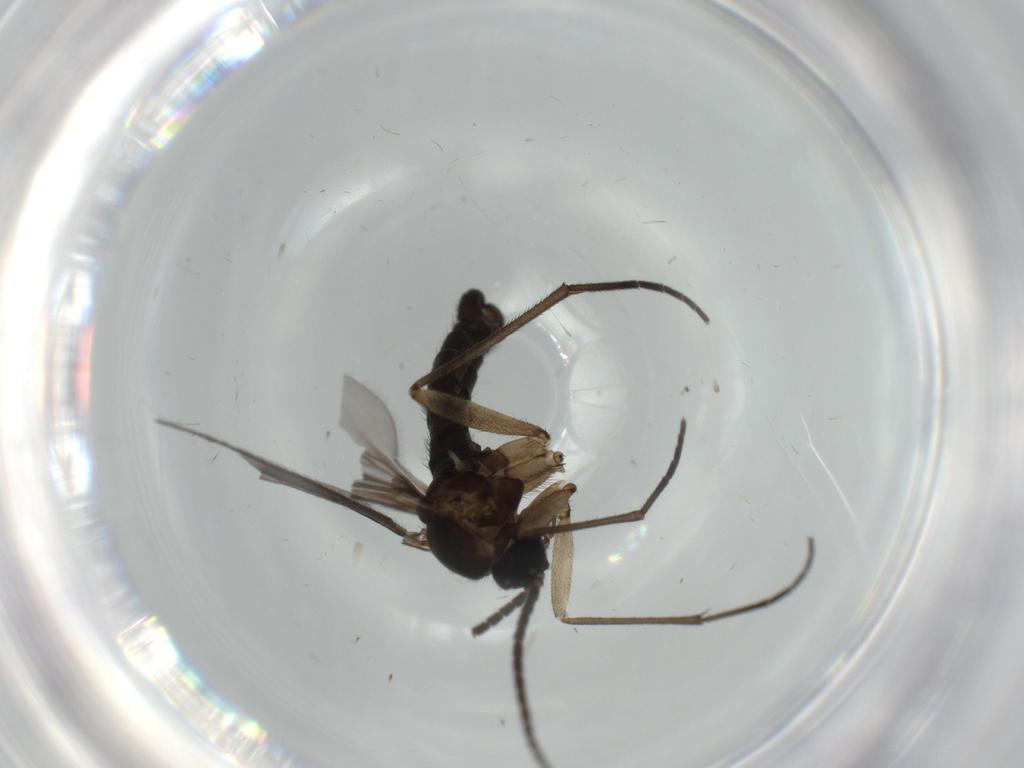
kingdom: Animalia
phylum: Arthropoda
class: Insecta
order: Diptera
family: Sciaridae
